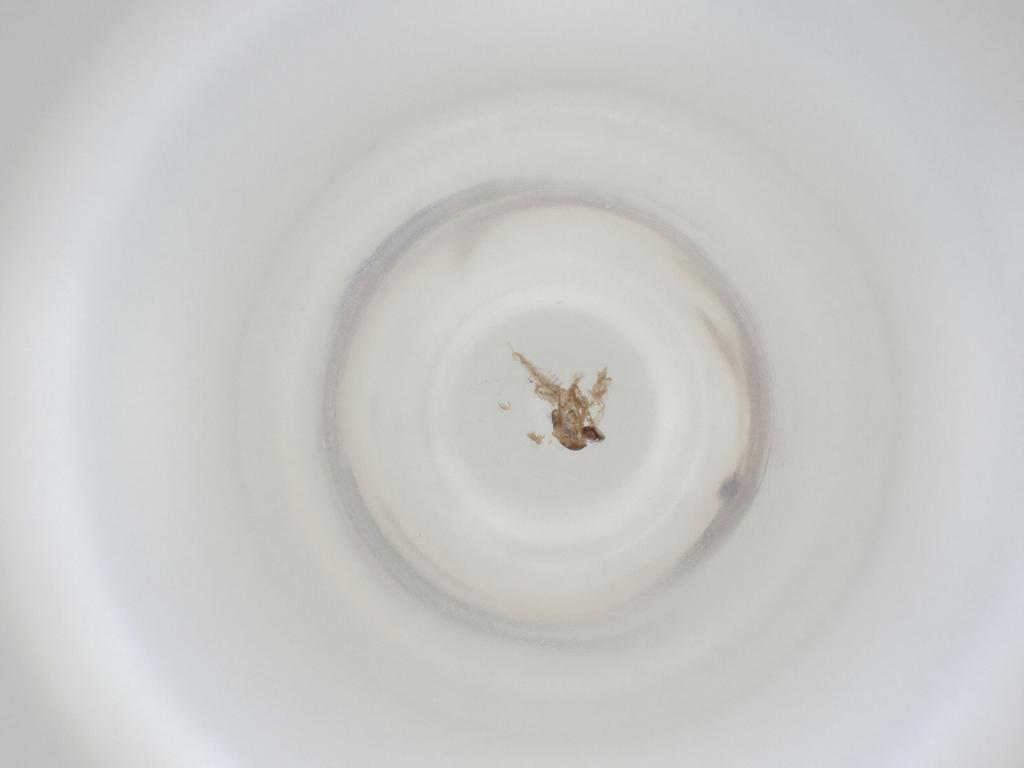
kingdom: Animalia
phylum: Arthropoda
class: Insecta
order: Diptera
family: Cecidomyiidae
